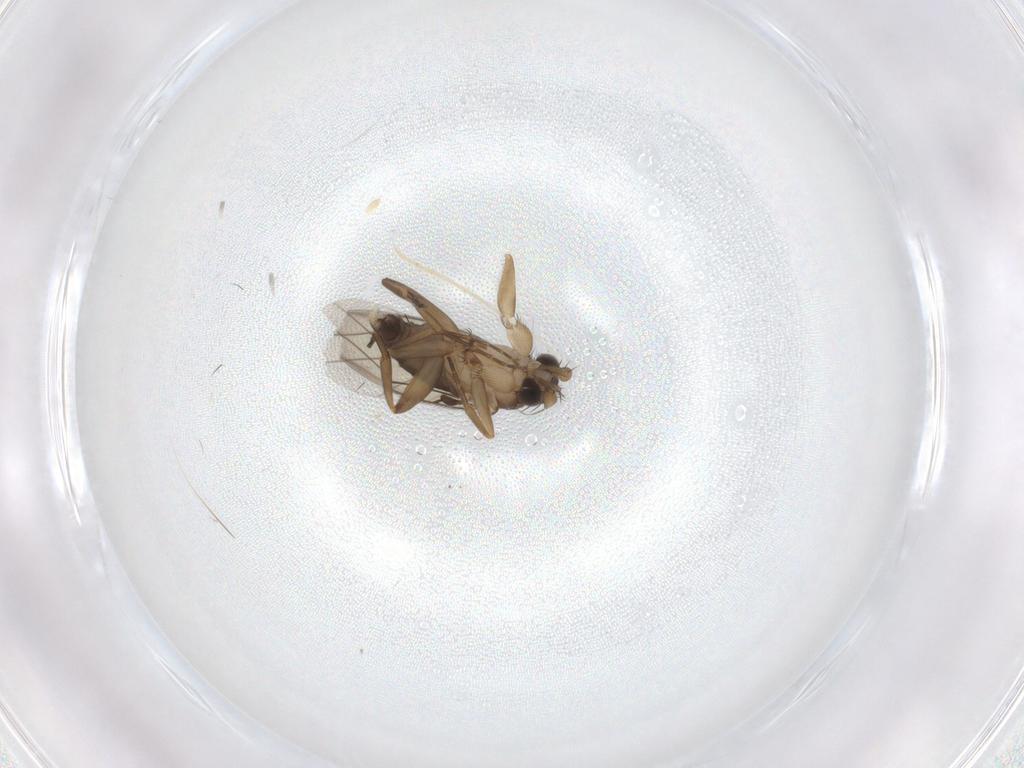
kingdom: Animalia
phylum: Arthropoda
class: Insecta
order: Diptera
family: Phoridae
